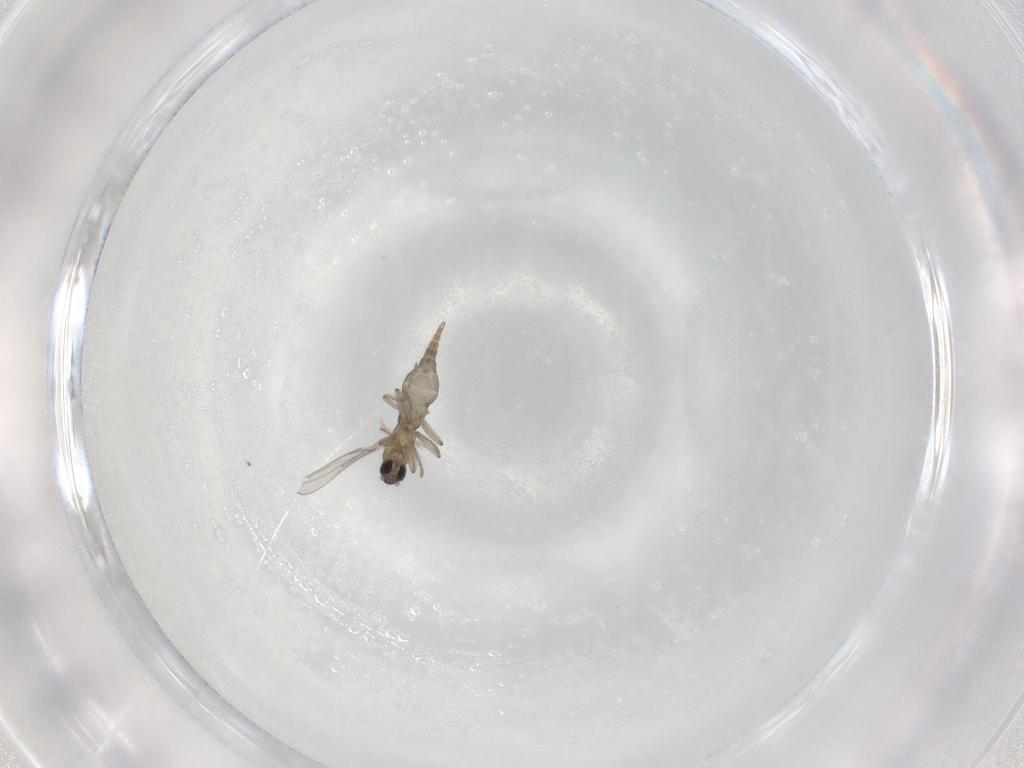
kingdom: Animalia
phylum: Arthropoda
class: Insecta
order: Diptera
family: Cecidomyiidae
